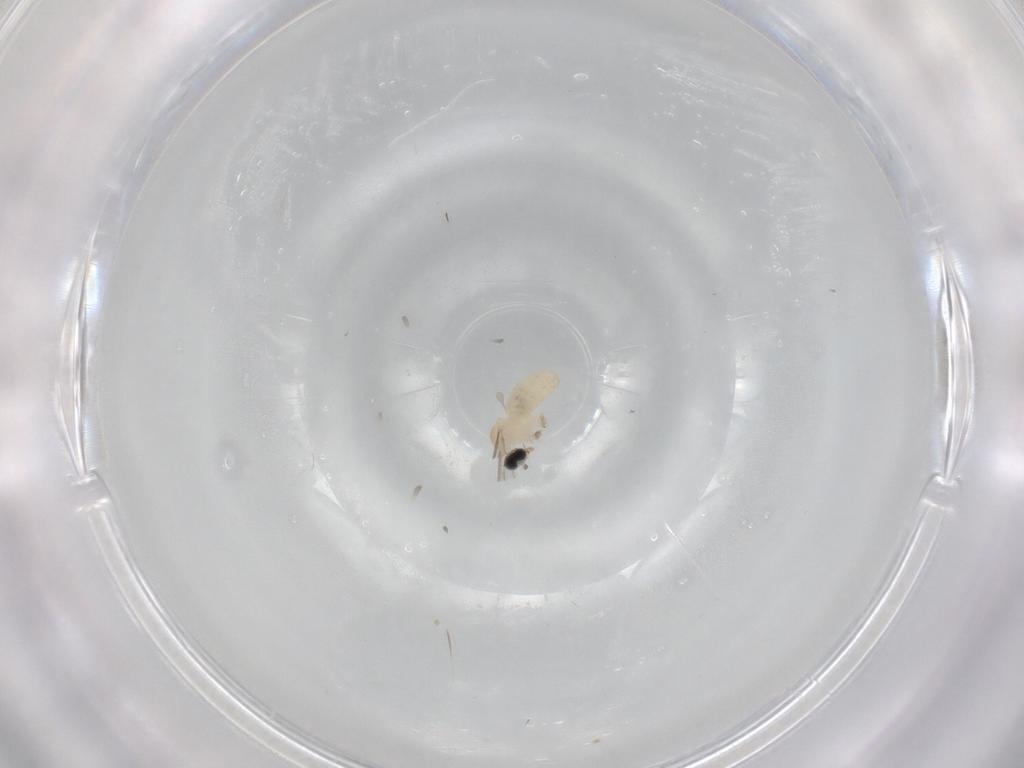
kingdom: Animalia
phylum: Arthropoda
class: Insecta
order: Diptera
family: Cecidomyiidae
